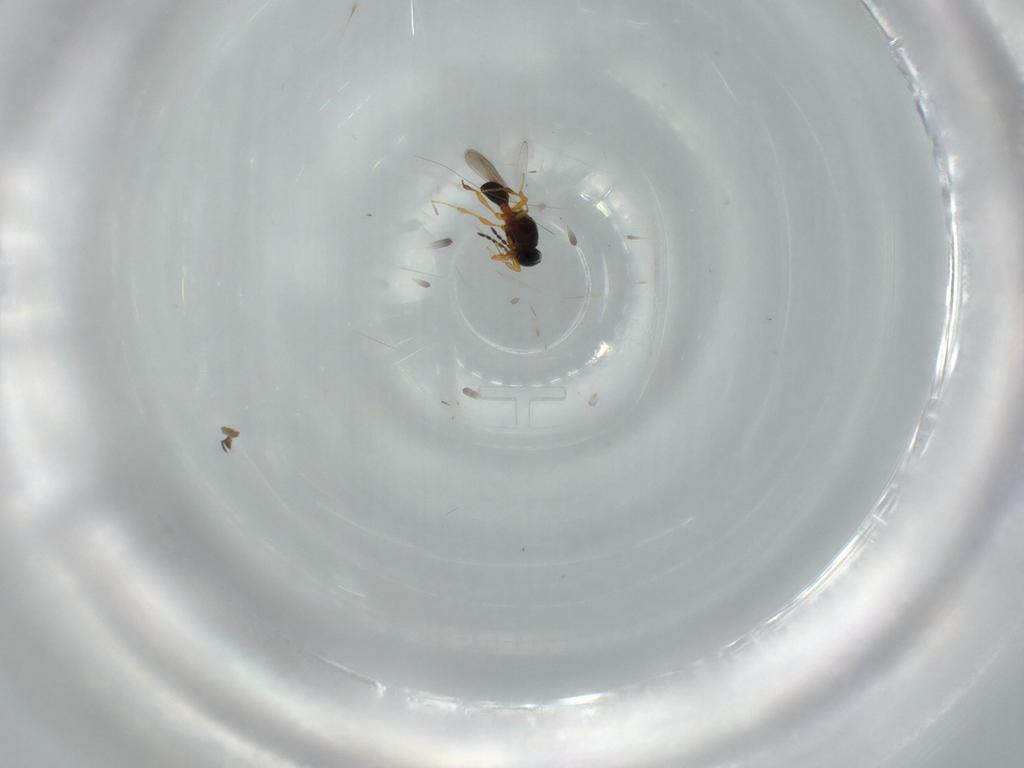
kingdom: Animalia
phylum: Arthropoda
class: Insecta
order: Hymenoptera
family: Platygastridae
